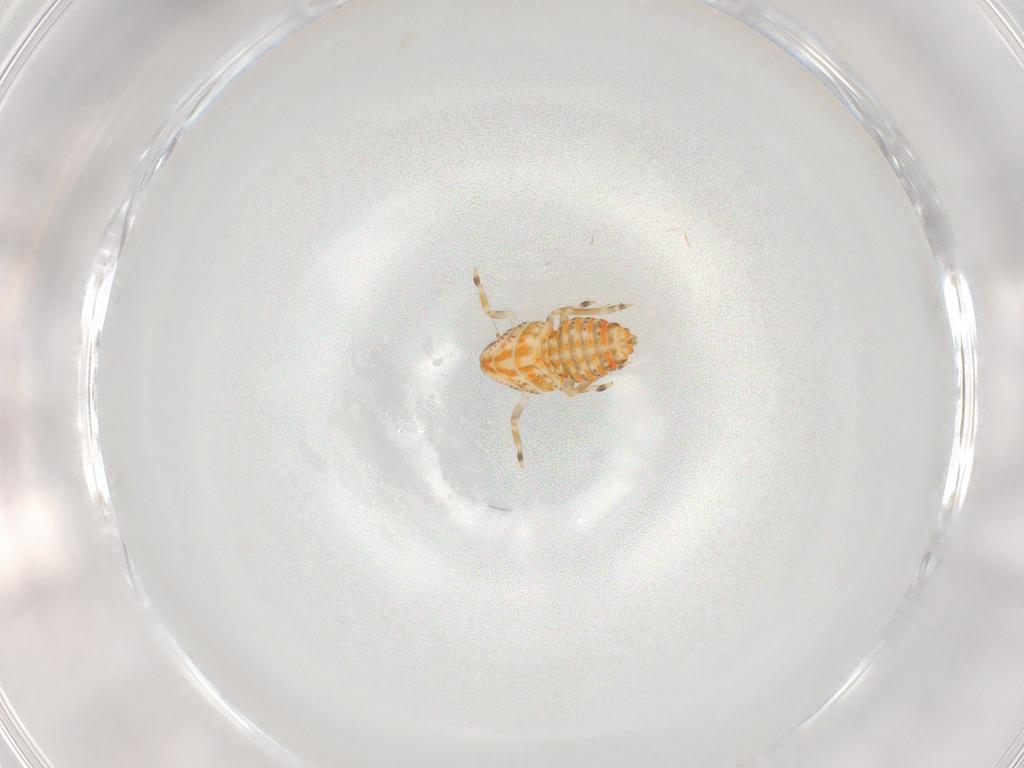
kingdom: Animalia
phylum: Arthropoda
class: Insecta
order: Hemiptera
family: Flatidae
